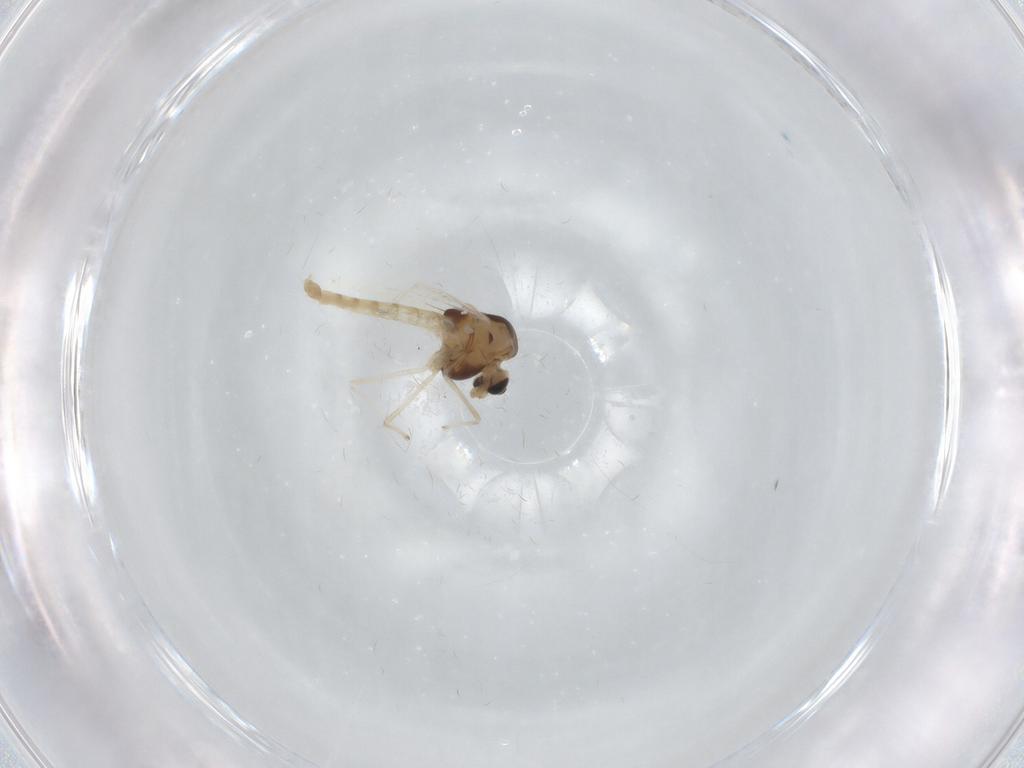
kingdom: Animalia
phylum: Arthropoda
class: Insecta
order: Diptera
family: Chironomidae
